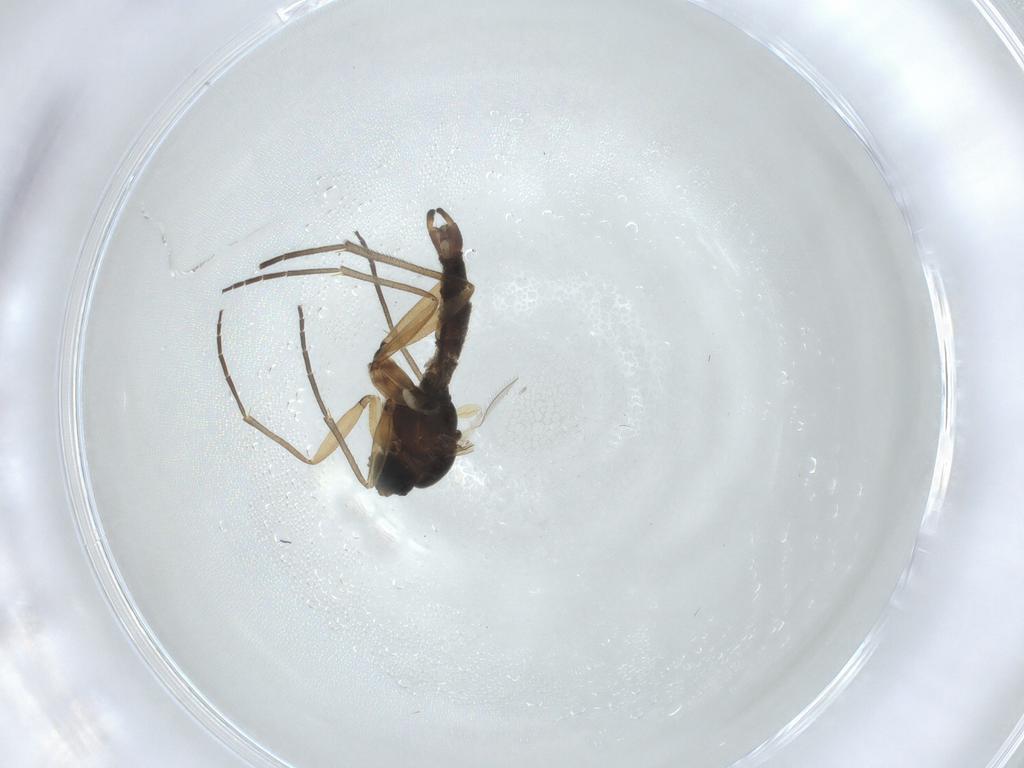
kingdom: Animalia
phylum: Arthropoda
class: Insecta
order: Diptera
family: Sciaridae
